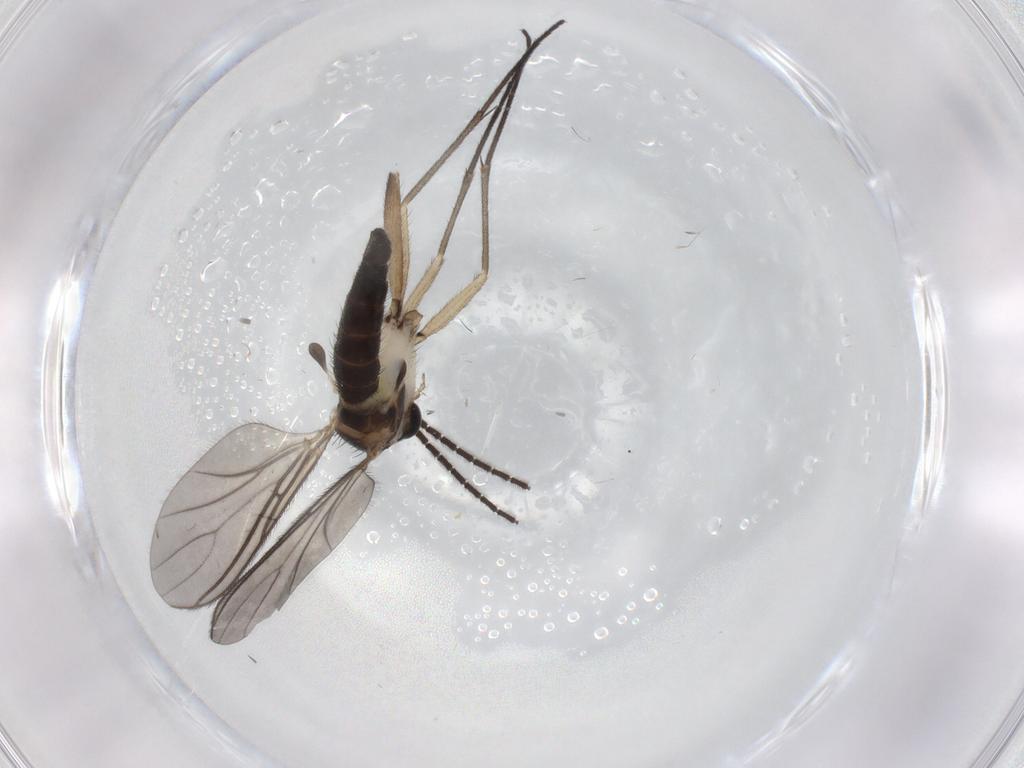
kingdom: Animalia
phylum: Arthropoda
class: Insecta
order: Diptera
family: Sciaridae
